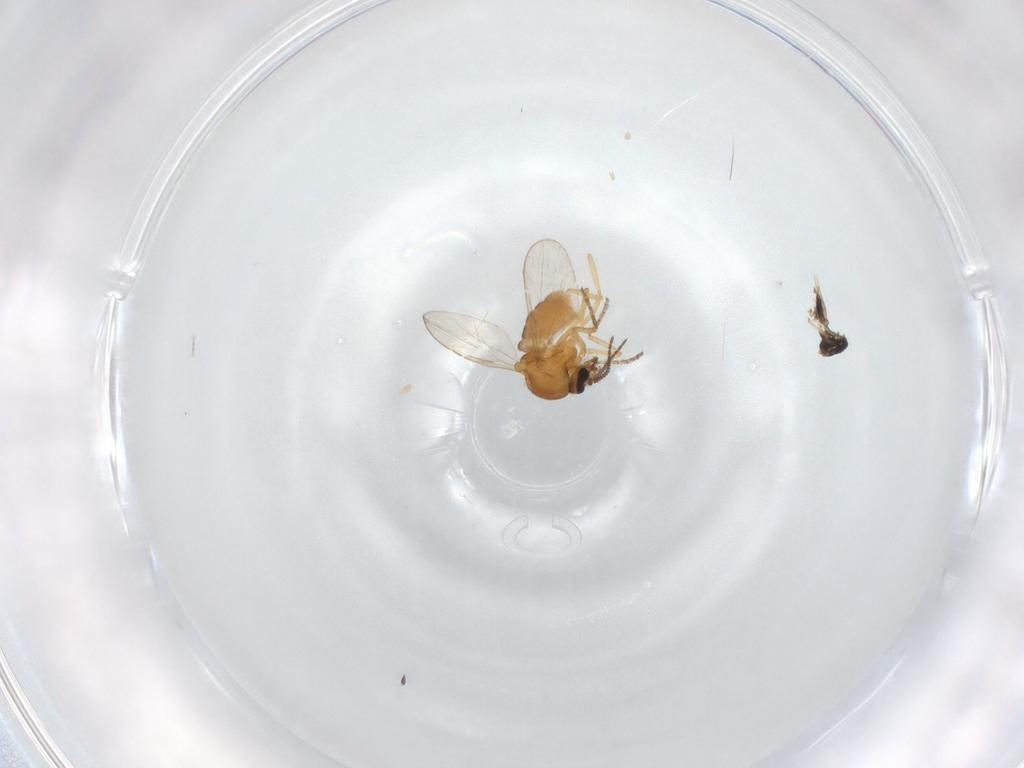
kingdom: Animalia
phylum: Arthropoda
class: Insecta
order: Diptera
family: Ceratopogonidae
